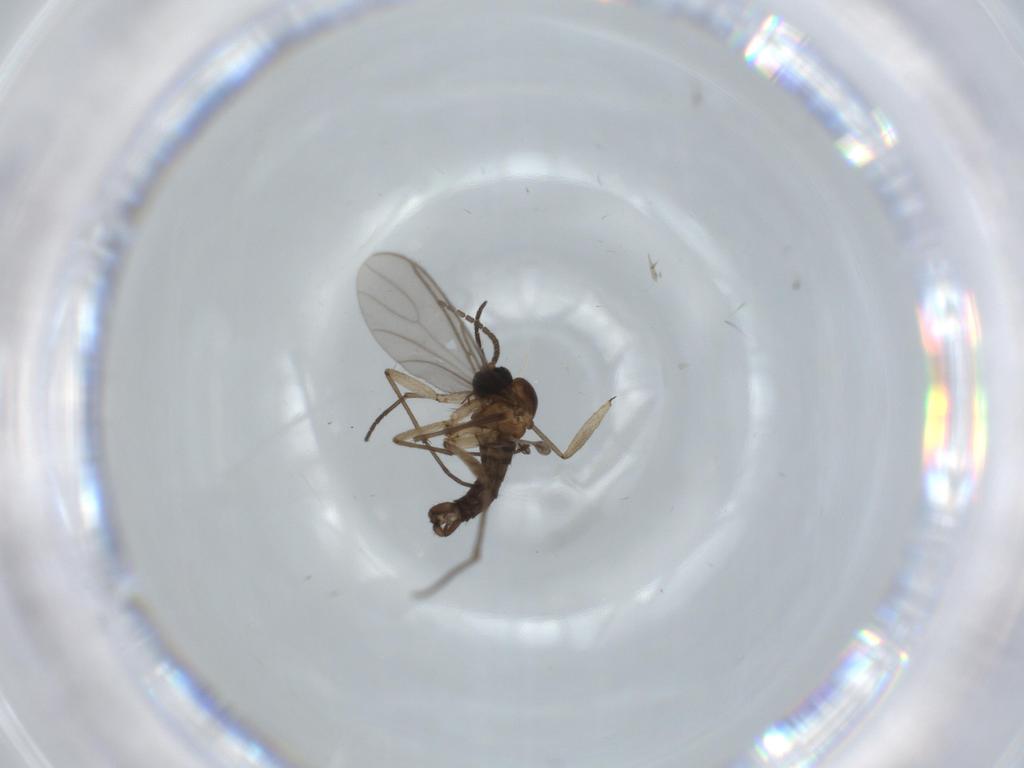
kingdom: Animalia
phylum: Arthropoda
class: Insecta
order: Diptera
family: Sciaridae
